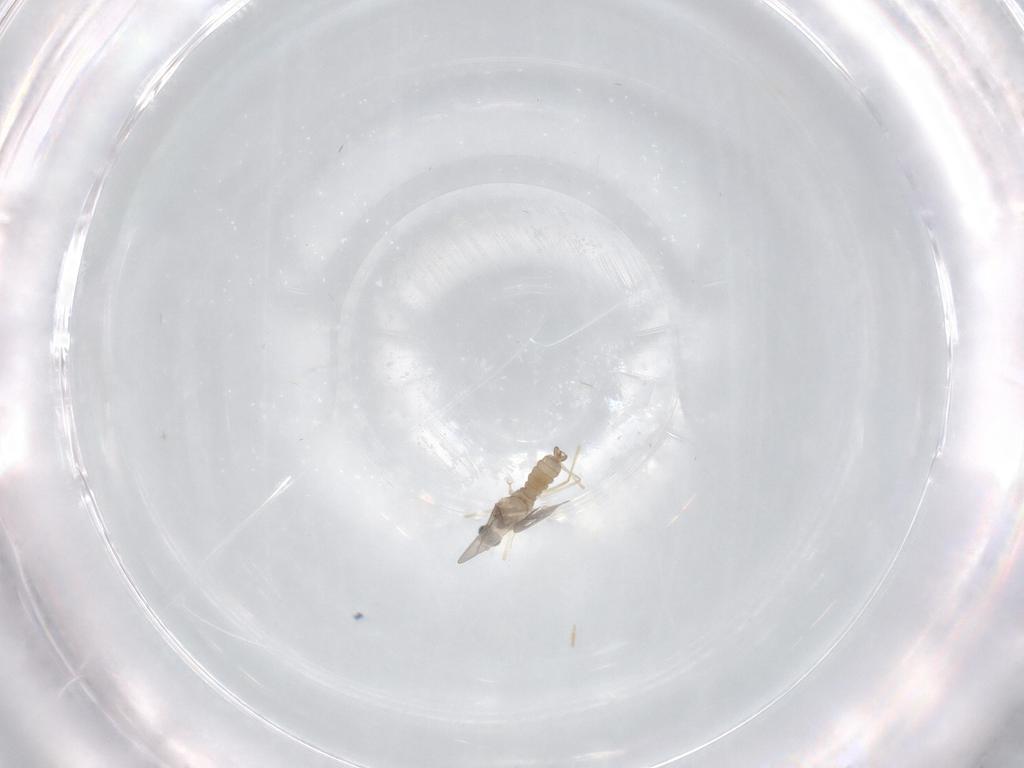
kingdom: Animalia
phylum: Arthropoda
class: Insecta
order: Diptera
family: Cecidomyiidae
